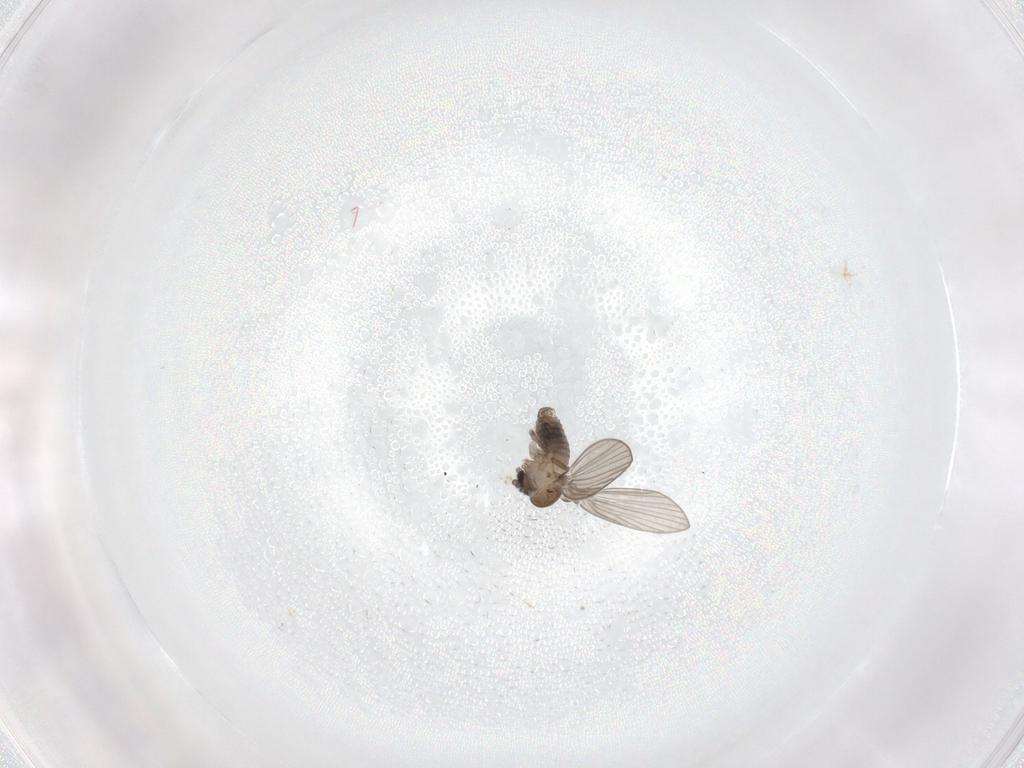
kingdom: Animalia
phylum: Arthropoda
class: Insecta
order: Diptera
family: Psychodidae
